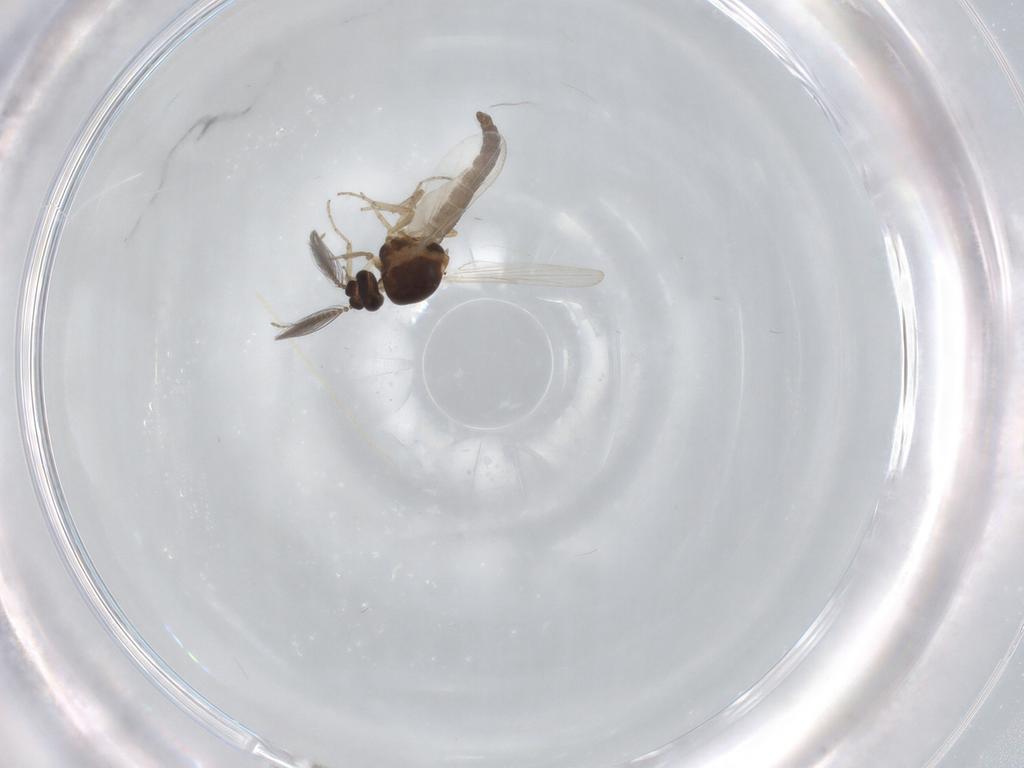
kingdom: Animalia
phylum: Arthropoda
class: Insecta
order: Diptera
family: Ceratopogonidae
